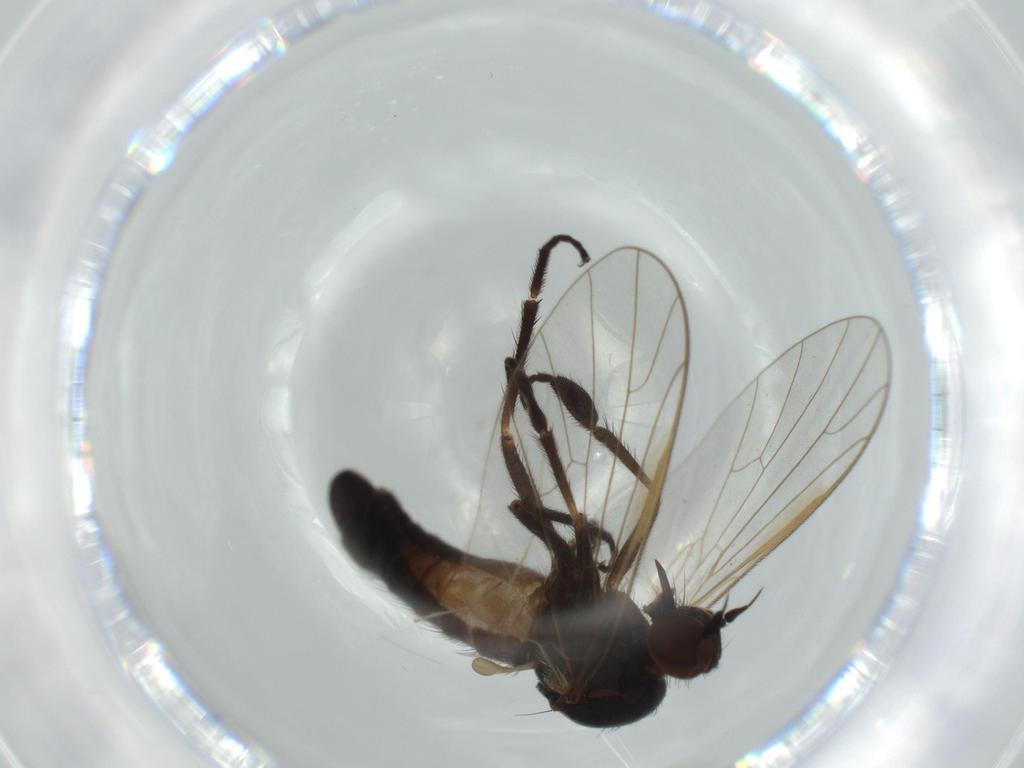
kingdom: Animalia
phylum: Arthropoda
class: Insecta
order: Diptera
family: Empididae
